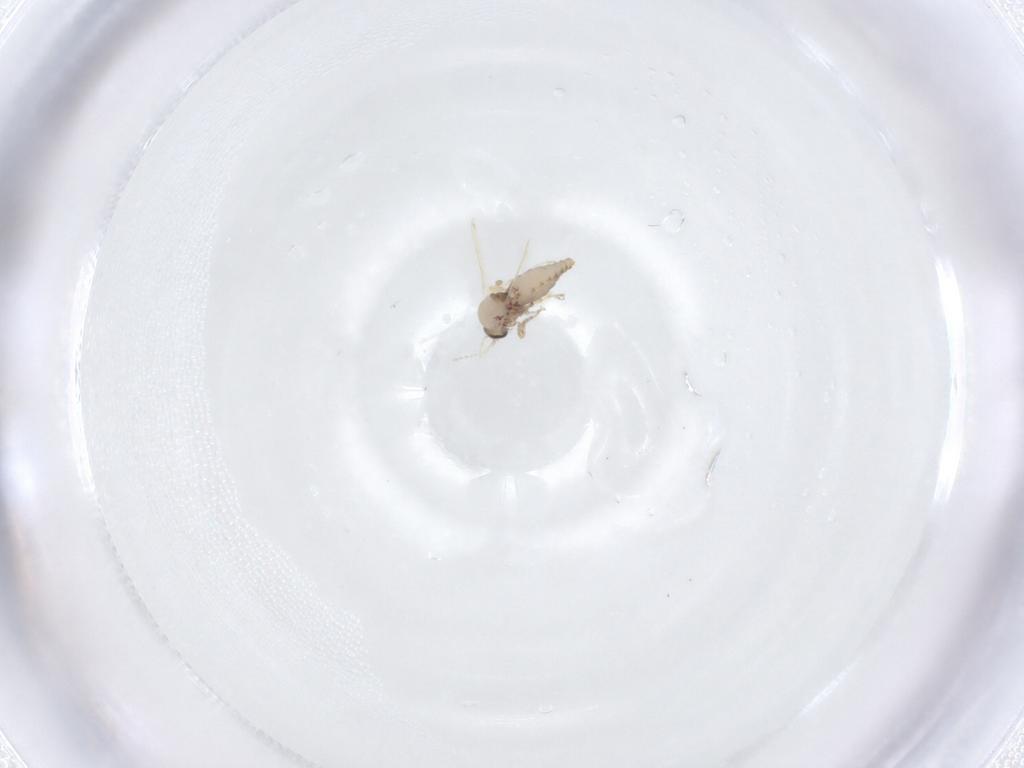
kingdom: Animalia
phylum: Arthropoda
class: Insecta
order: Diptera
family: Ceratopogonidae
